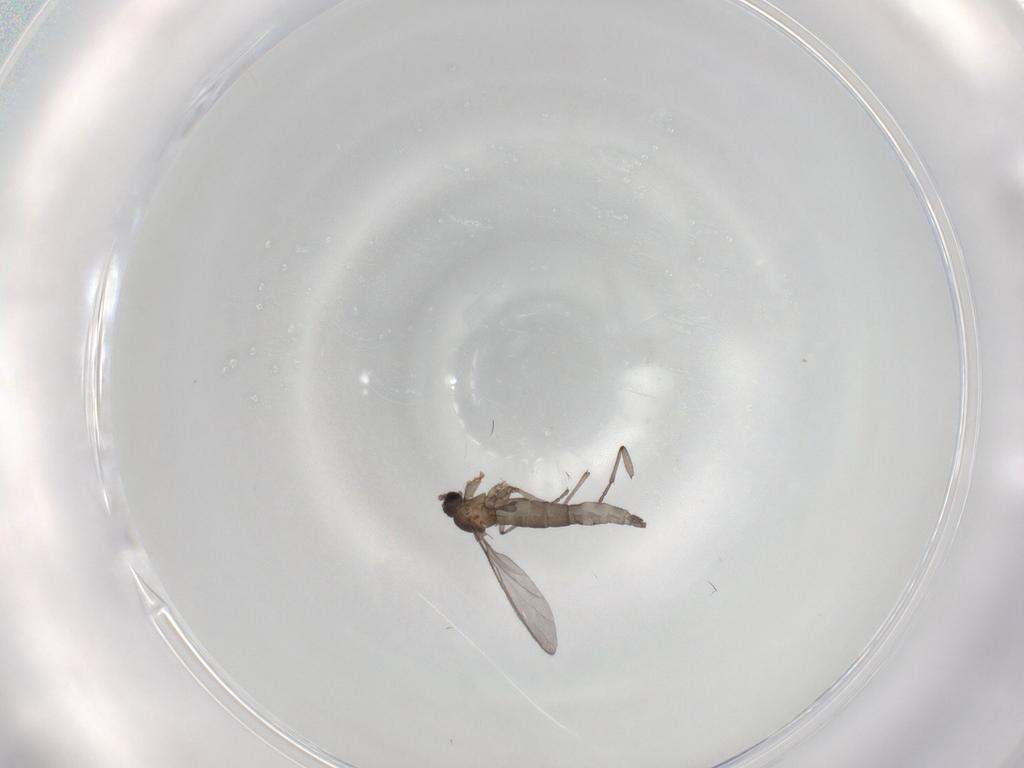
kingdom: Animalia
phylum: Arthropoda
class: Insecta
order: Diptera
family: Sciaridae
